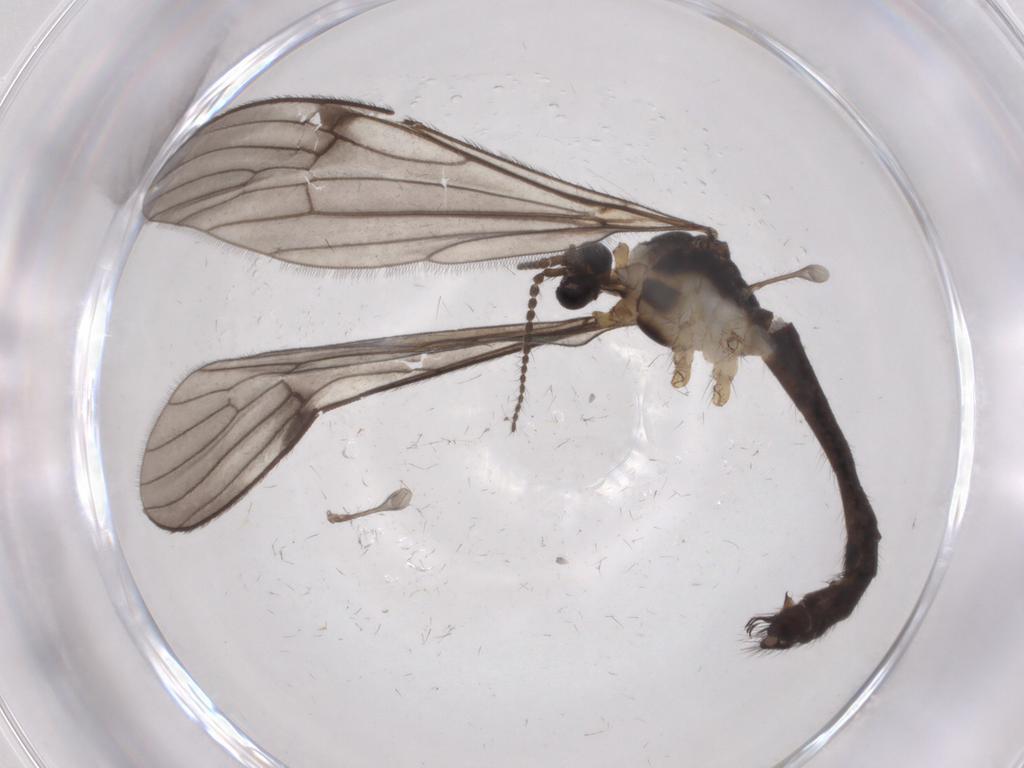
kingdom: Animalia
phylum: Arthropoda
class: Insecta
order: Diptera
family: Limoniidae
